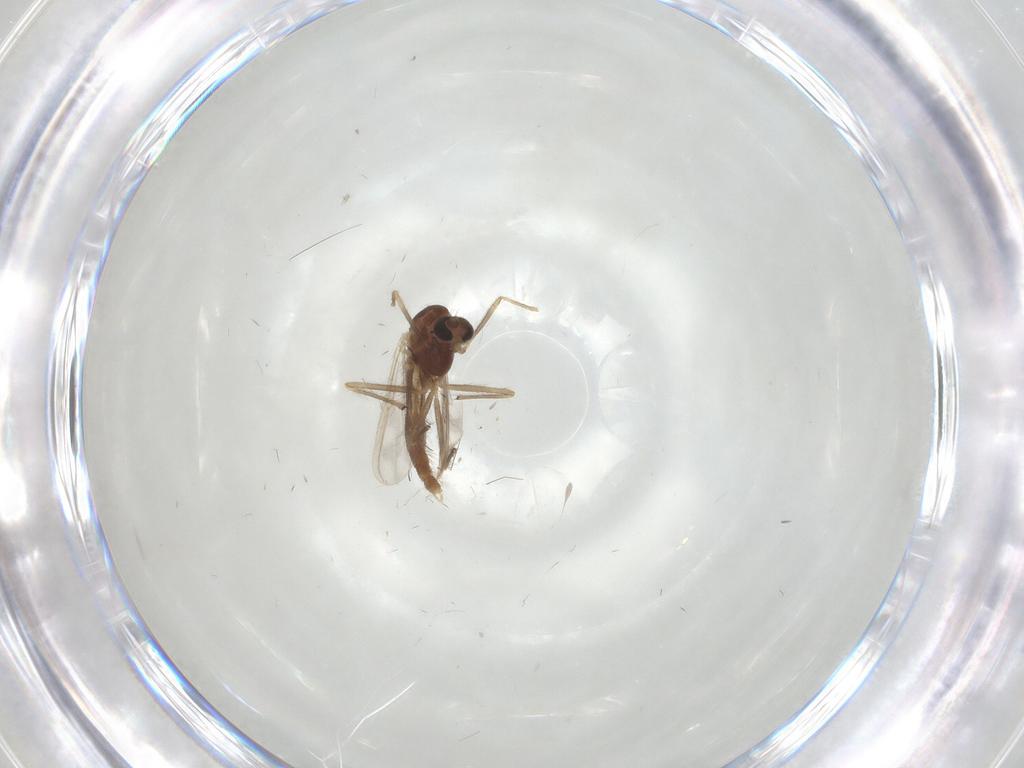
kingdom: Animalia
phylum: Arthropoda
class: Insecta
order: Diptera
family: Chironomidae
